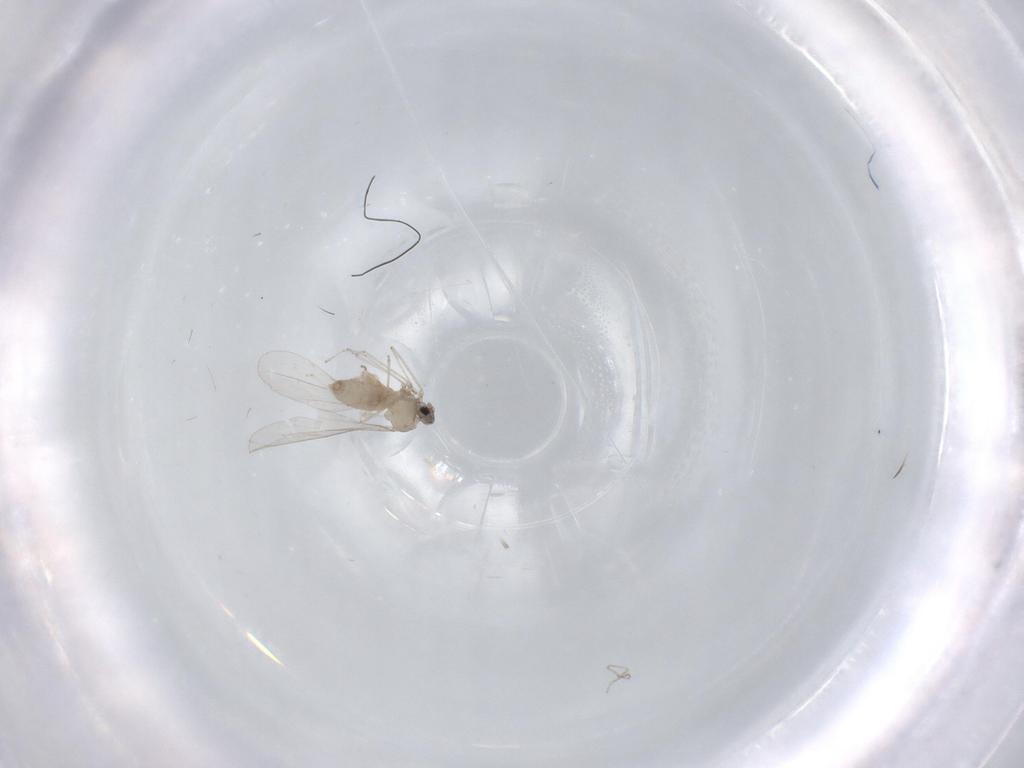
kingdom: Animalia
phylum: Arthropoda
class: Insecta
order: Diptera
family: Cecidomyiidae
